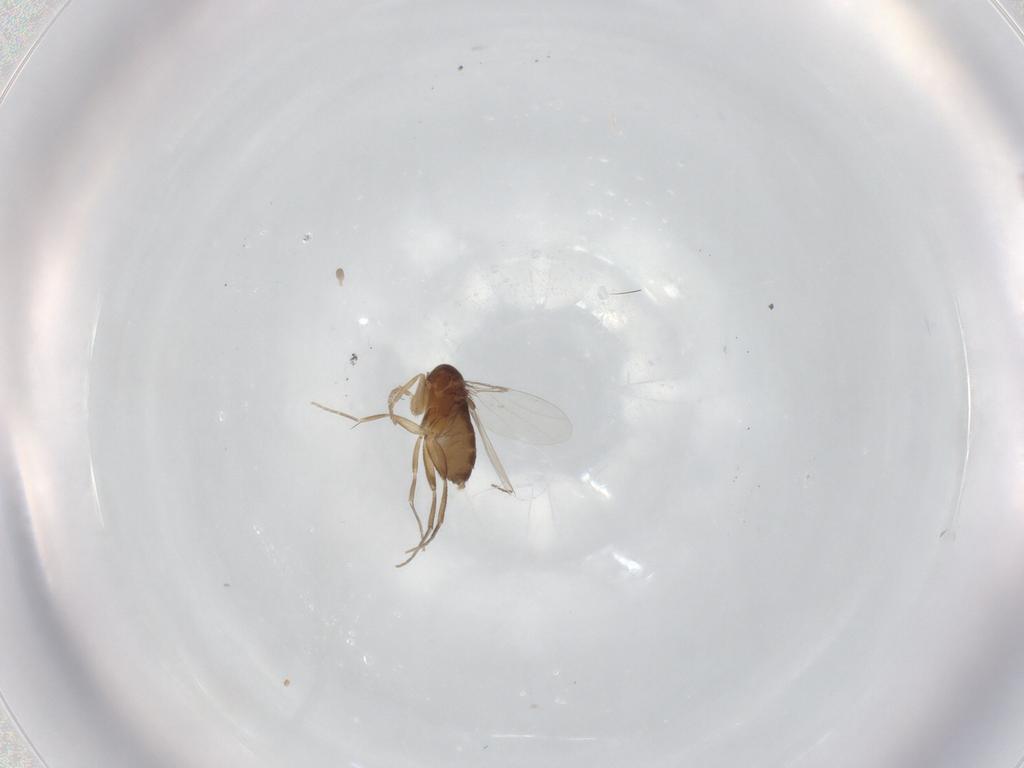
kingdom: Animalia
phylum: Arthropoda
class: Insecta
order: Diptera
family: Phoridae
